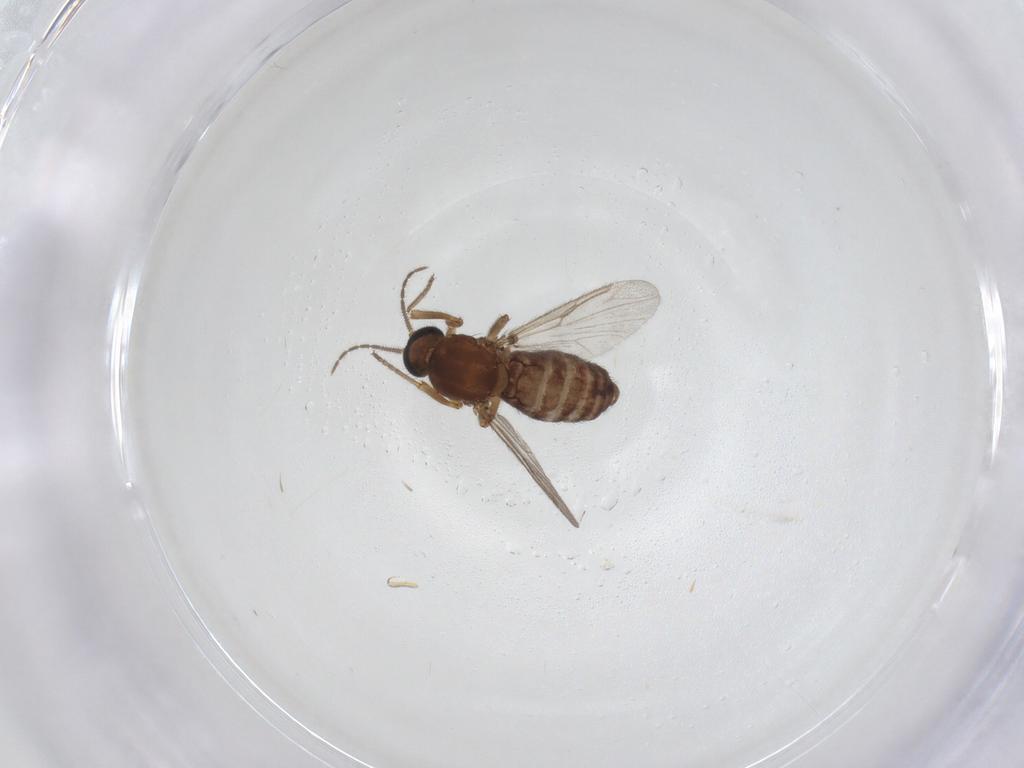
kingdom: Animalia
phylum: Arthropoda
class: Insecta
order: Diptera
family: Ceratopogonidae
